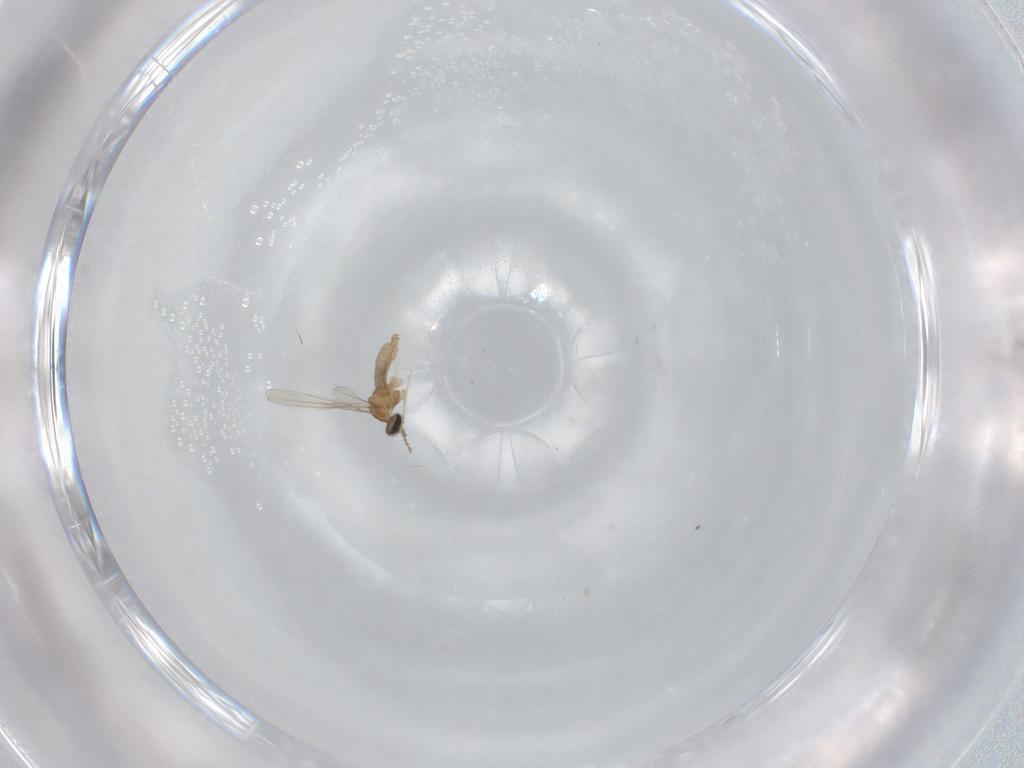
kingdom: Animalia
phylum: Arthropoda
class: Insecta
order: Diptera
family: Cecidomyiidae
